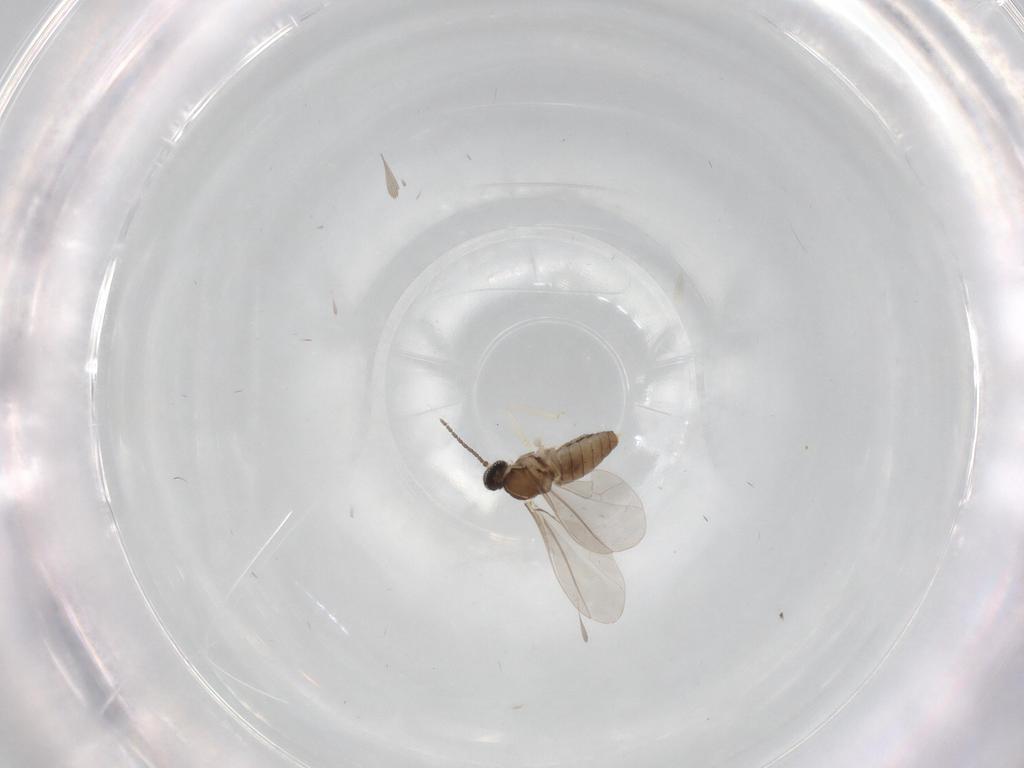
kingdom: Animalia
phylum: Arthropoda
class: Insecta
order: Diptera
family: Cecidomyiidae
